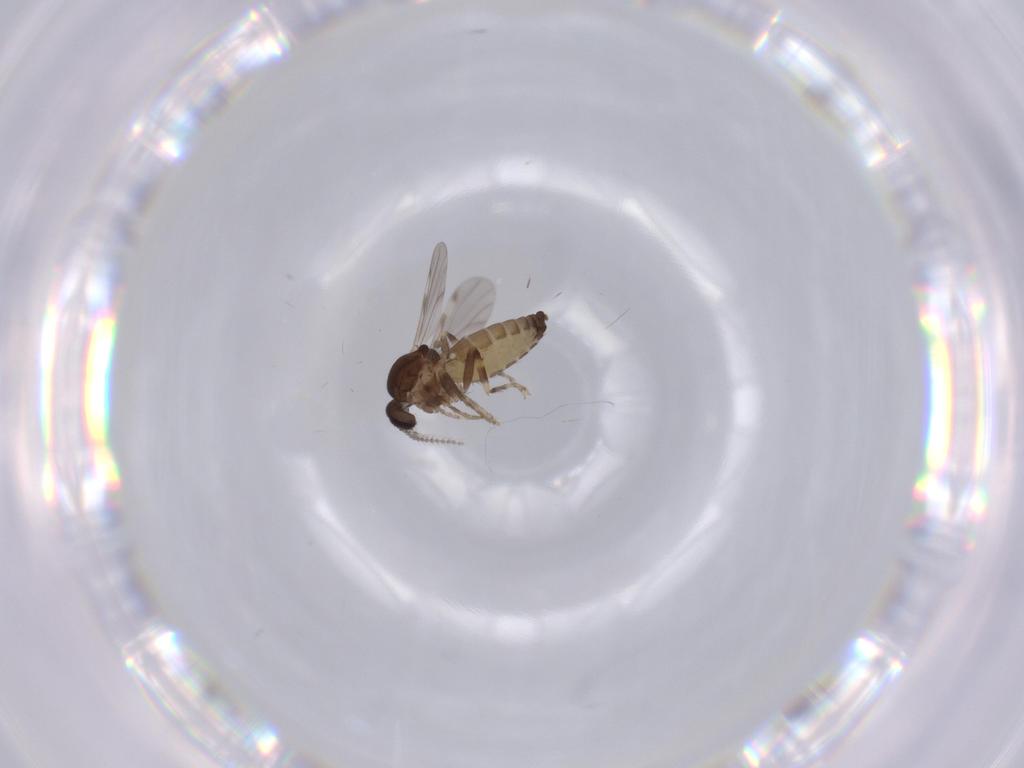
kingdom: Animalia
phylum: Arthropoda
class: Insecta
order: Diptera
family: Ceratopogonidae
